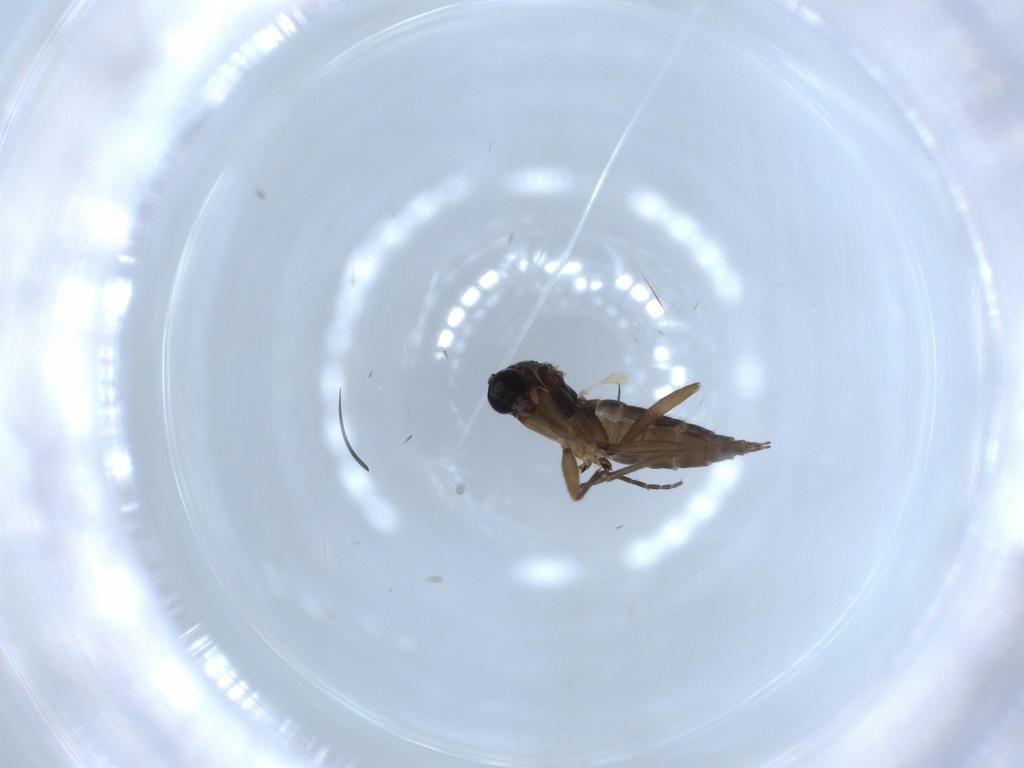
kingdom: Animalia
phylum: Arthropoda
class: Insecta
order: Diptera
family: Sciaridae
